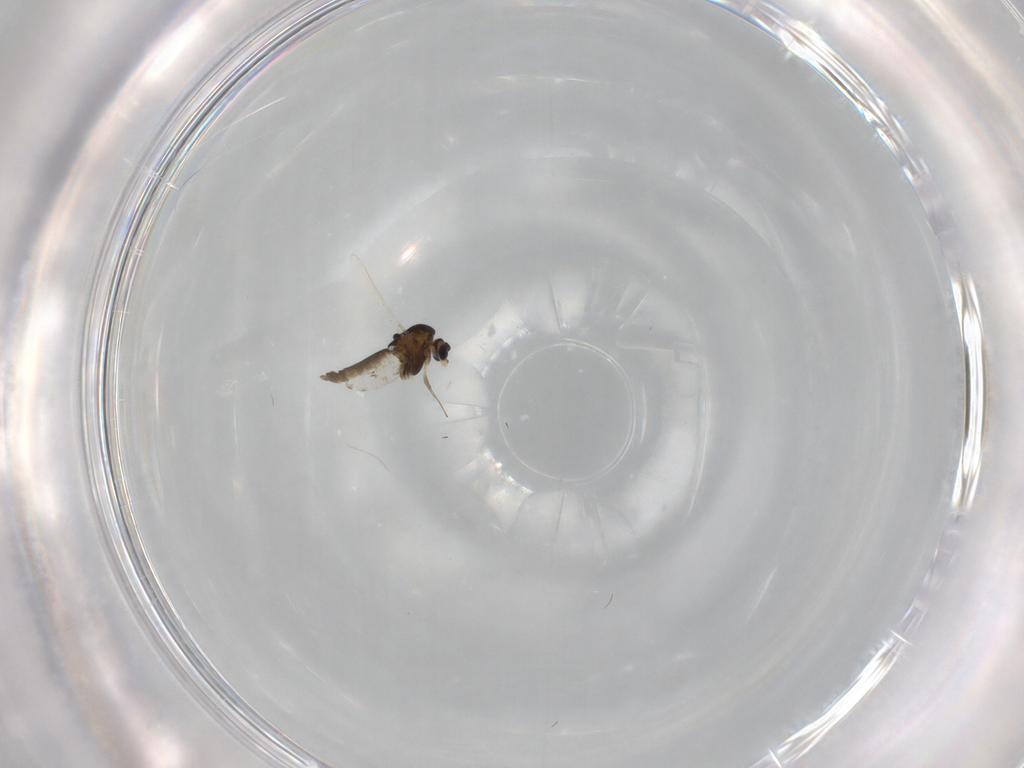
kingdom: Animalia
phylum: Arthropoda
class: Insecta
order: Diptera
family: Chironomidae
